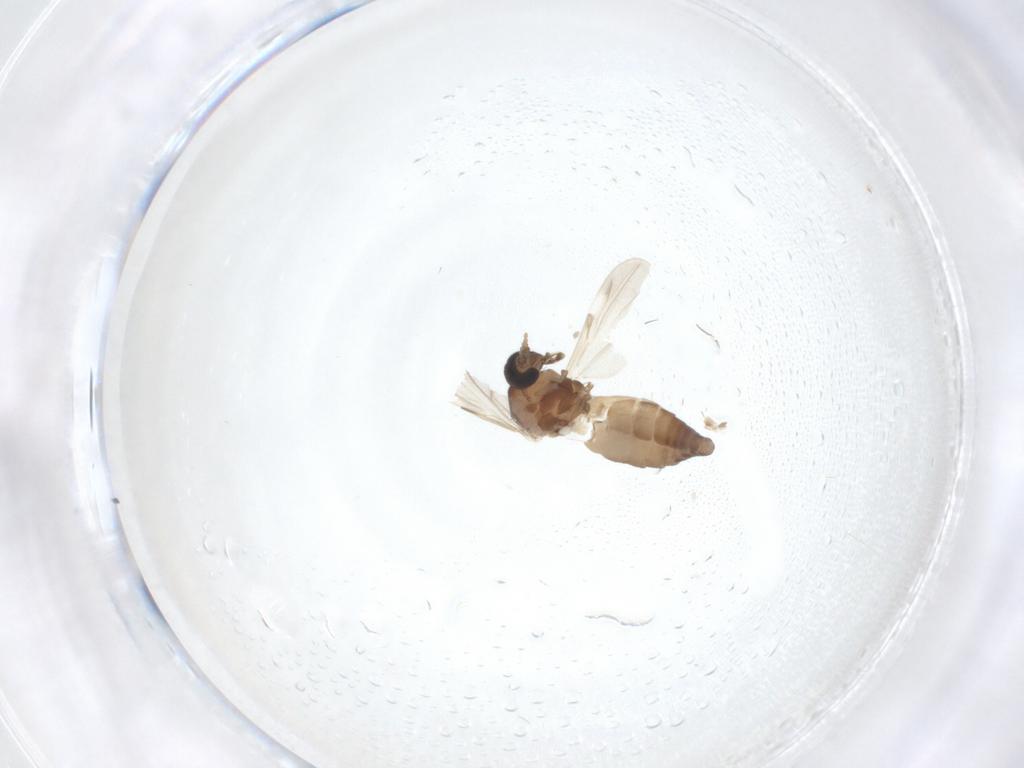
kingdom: Animalia
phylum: Arthropoda
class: Insecta
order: Diptera
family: Ceratopogonidae
